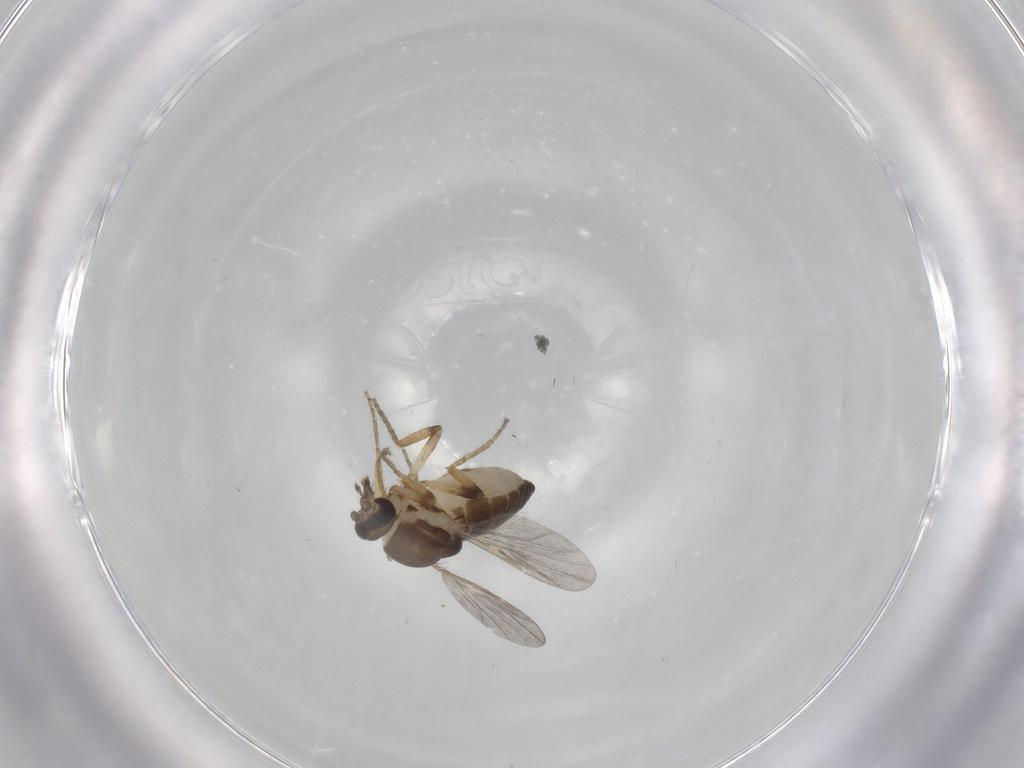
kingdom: Animalia
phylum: Arthropoda
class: Insecta
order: Diptera
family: Ceratopogonidae
